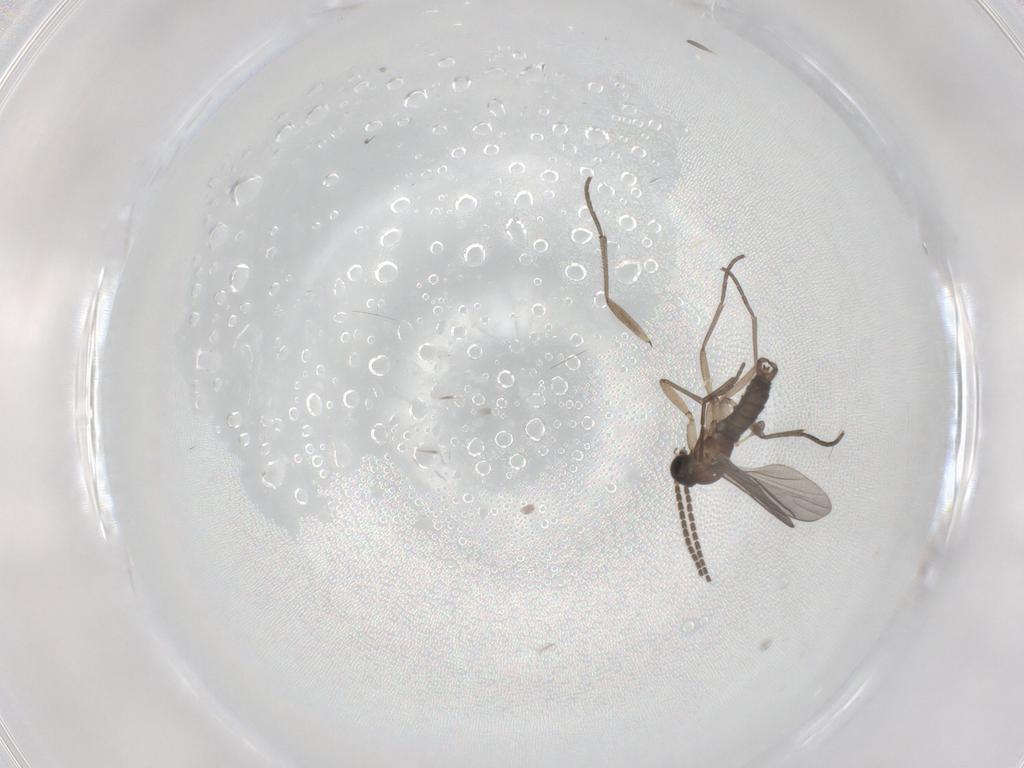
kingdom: Animalia
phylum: Arthropoda
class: Insecta
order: Diptera
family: Sciaridae
